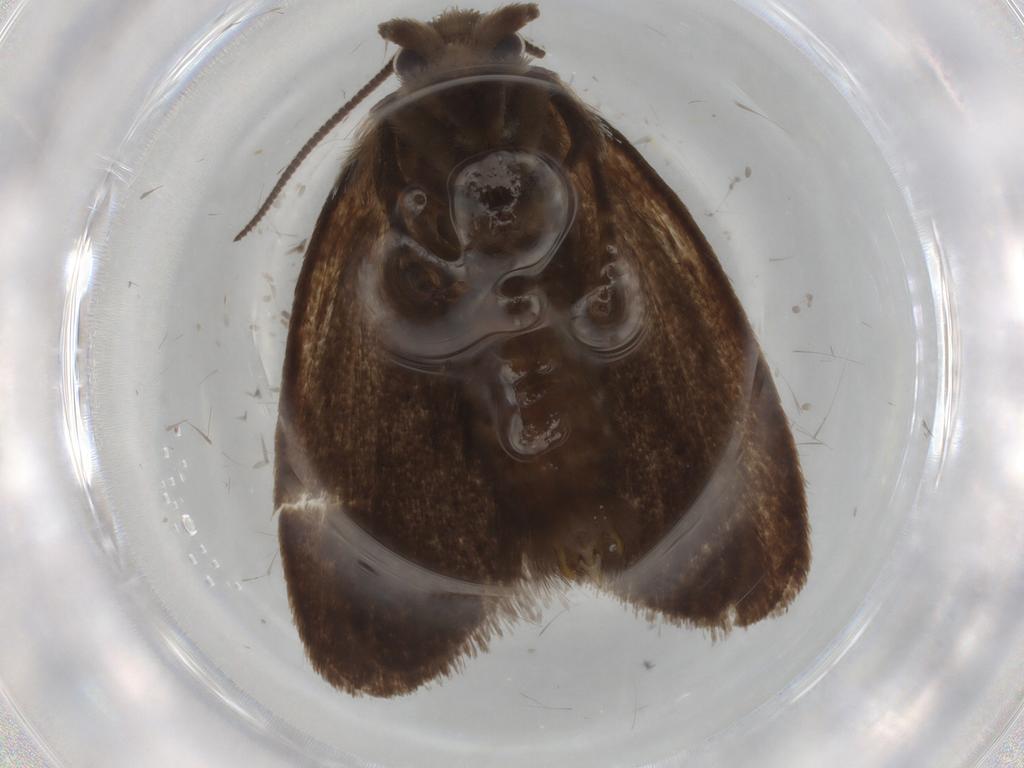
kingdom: Animalia
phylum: Arthropoda
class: Insecta
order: Lepidoptera
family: Tineidae
